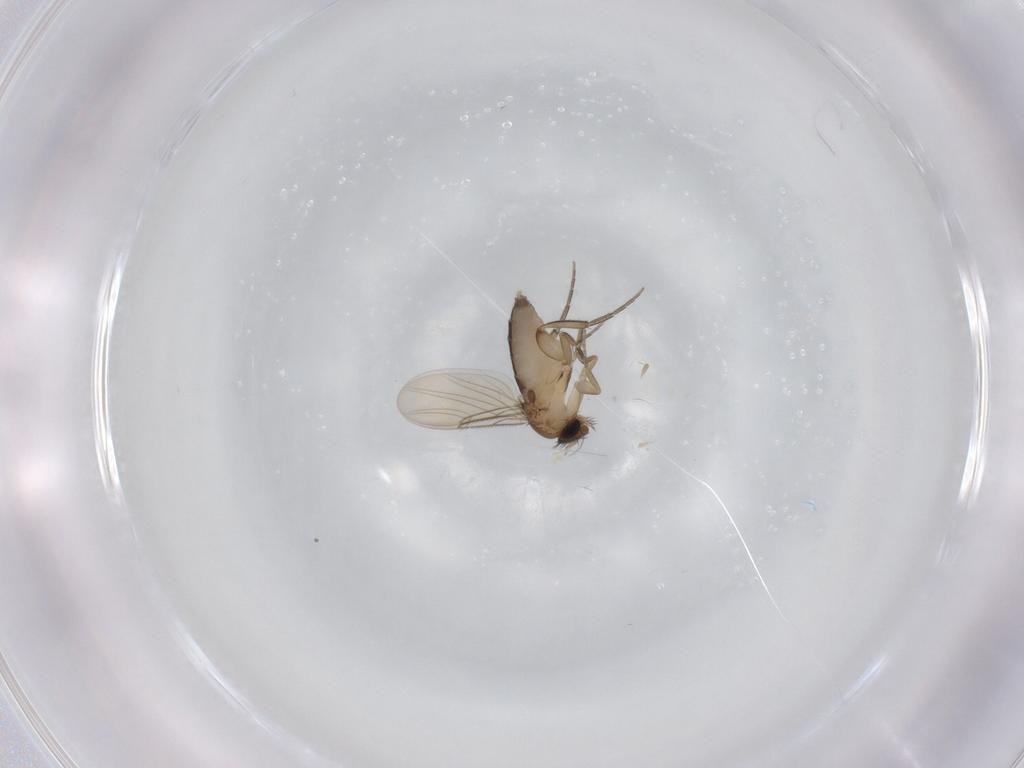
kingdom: Animalia
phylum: Arthropoda
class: Insecta
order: Diptera
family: Phoridae
